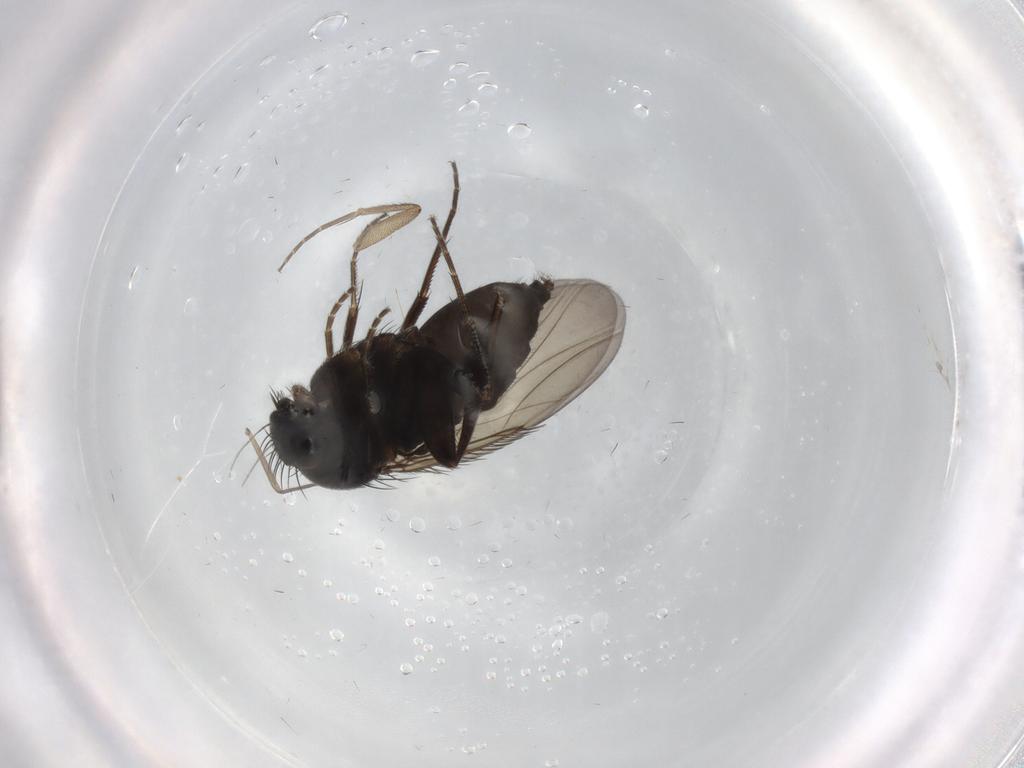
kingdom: Animalia
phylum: Arthropoda
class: Insecta
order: Diptera
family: Phoridae
